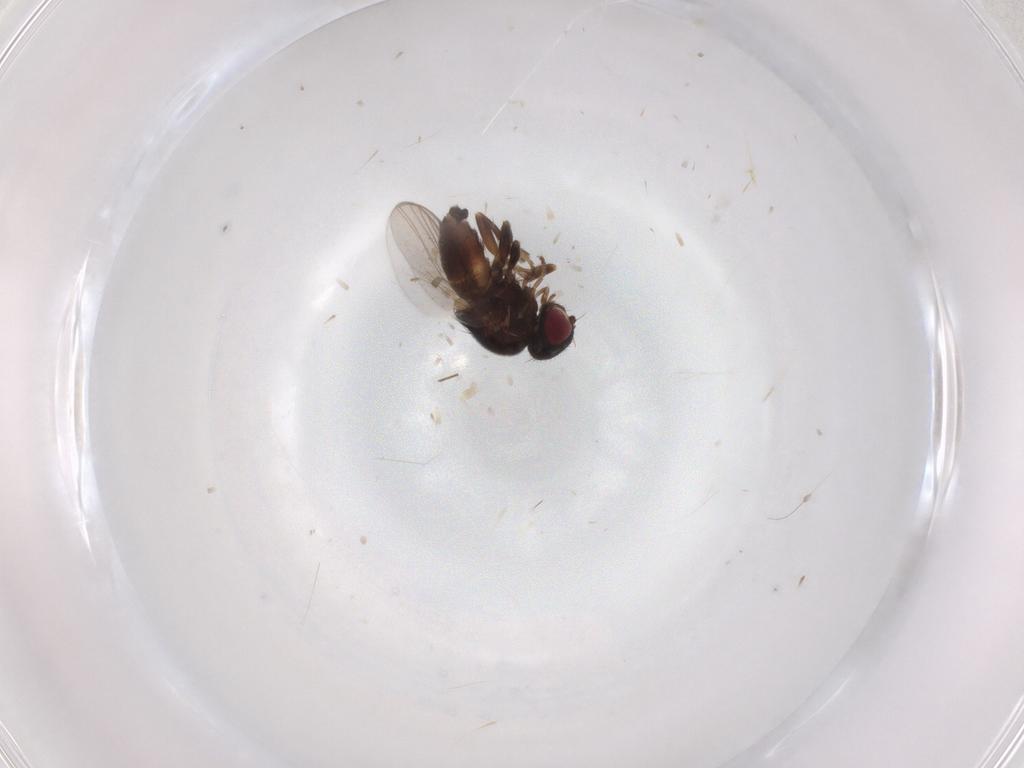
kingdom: Animalia
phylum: Arthropoda
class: Insecta
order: Diptera
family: Chloropidae
